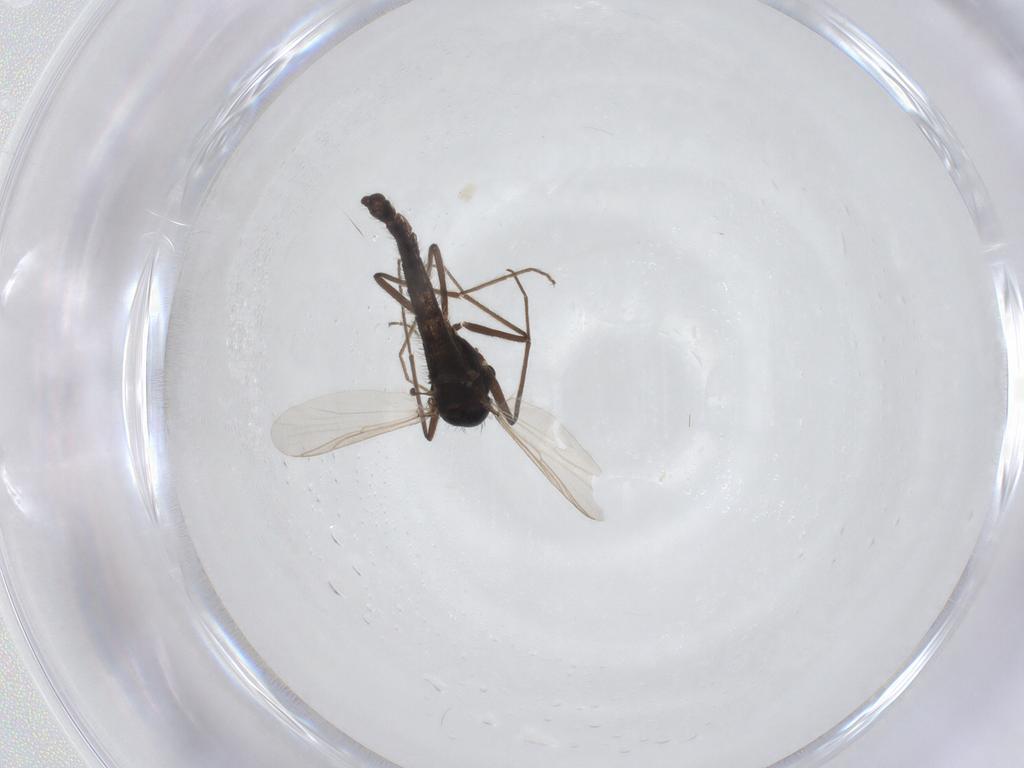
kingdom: Animalia
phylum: Arthropoda
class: Insecta
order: Diptera
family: Chironomidae
